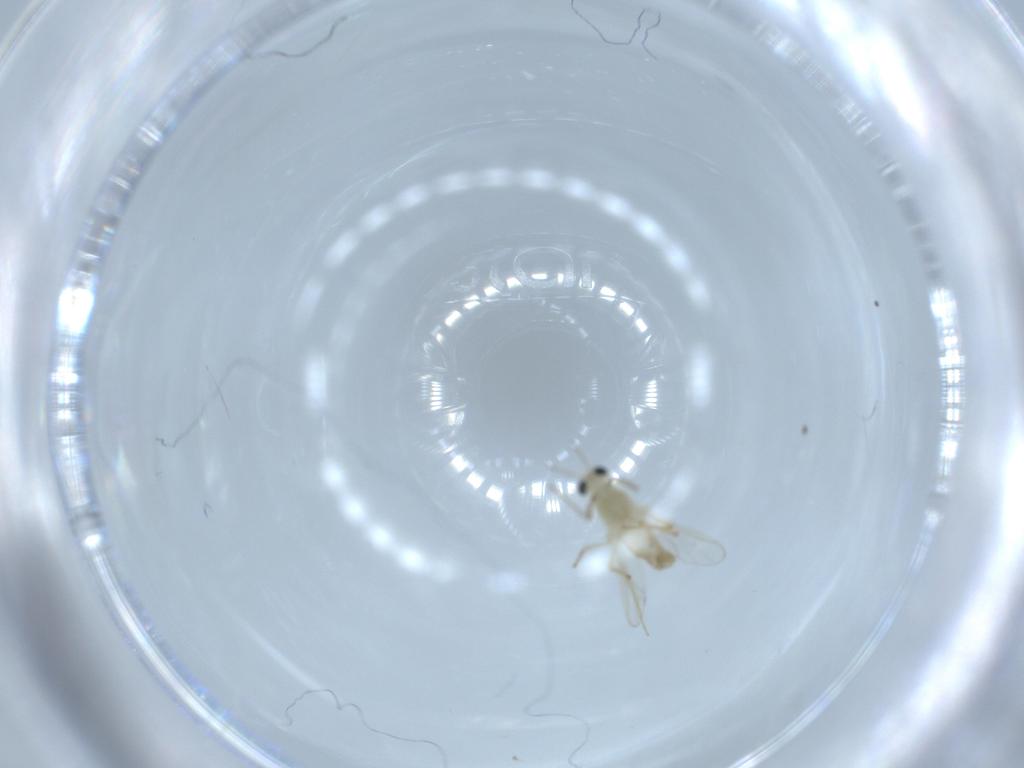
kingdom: Animalia
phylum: Arthropoda
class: Insecta
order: Diptera
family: Chironomidae
